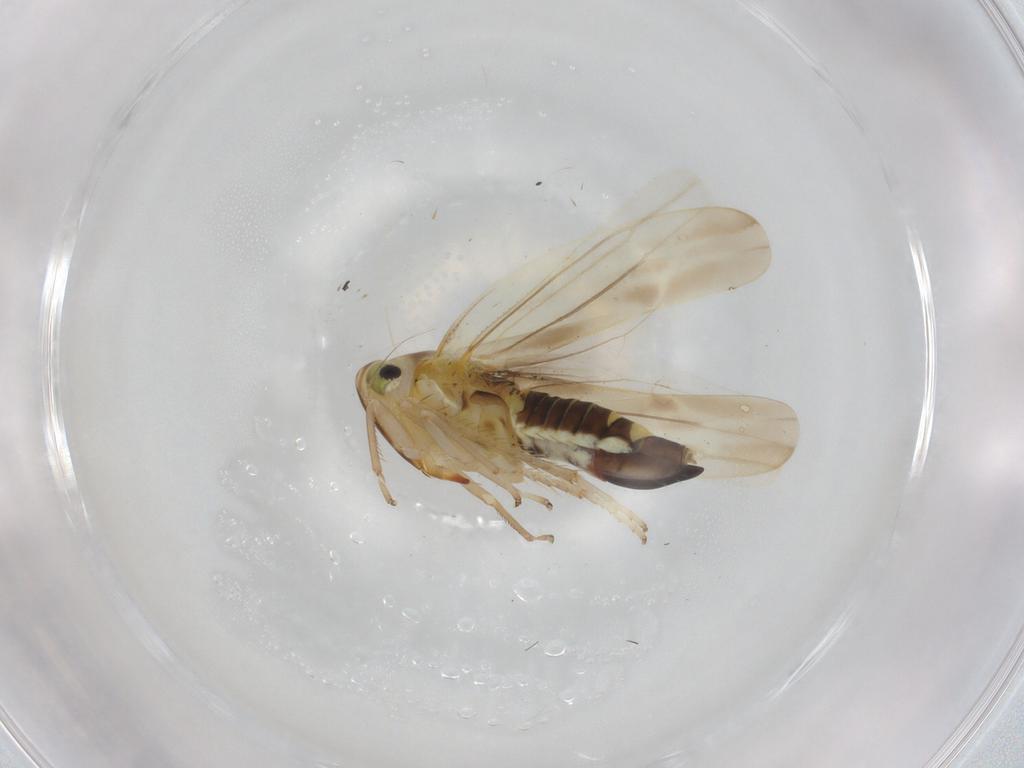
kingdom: Animalia
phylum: Arthropoda
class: Insecta
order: Hemiptera
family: Cicadellidae
